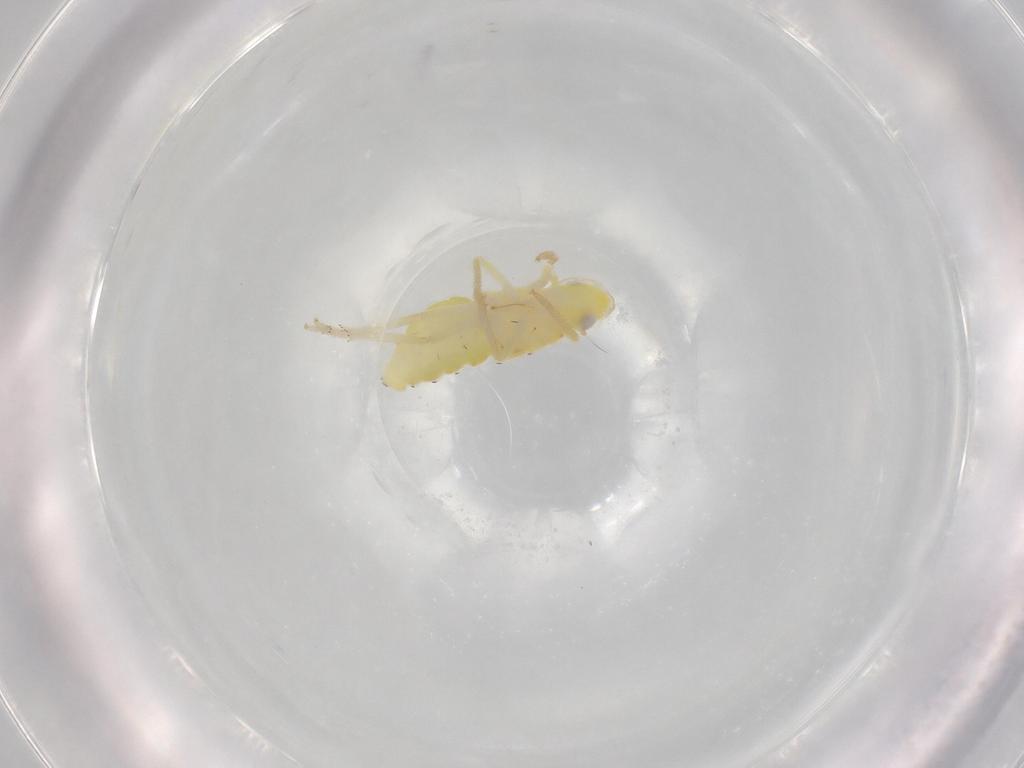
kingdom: Animalia
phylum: Arthropoda
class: Insecta
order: Hemiptera
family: Tropiduchidae
